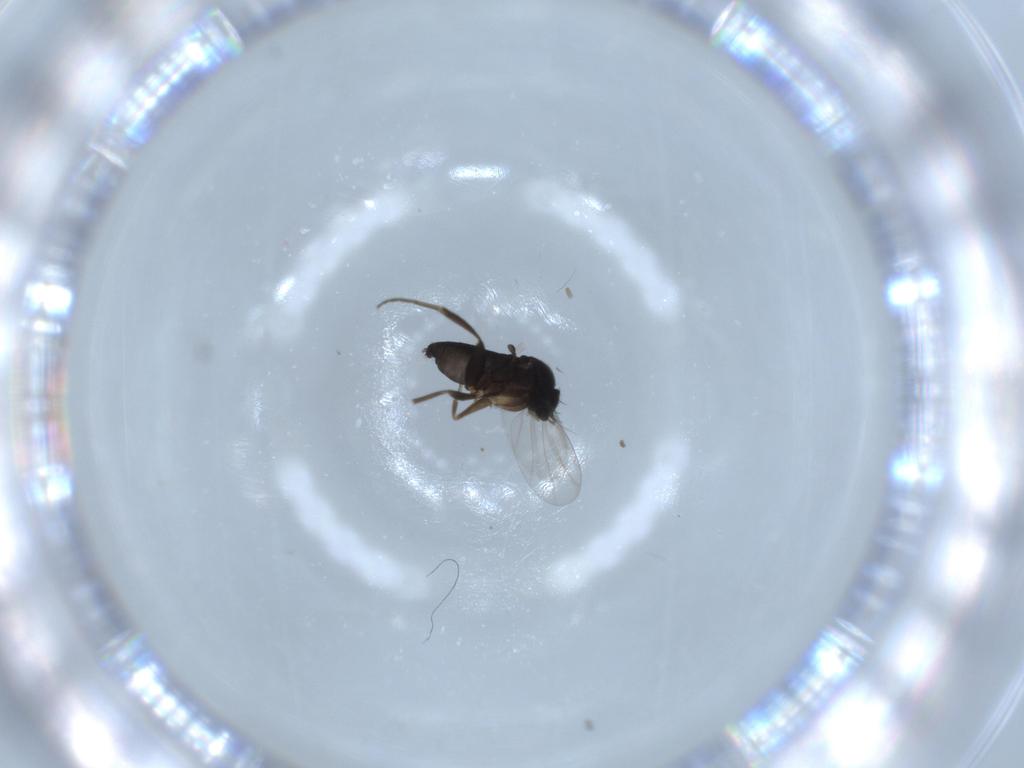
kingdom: Animalia
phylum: Arthropoda
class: Insecta
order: Diptera
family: Phoridae
